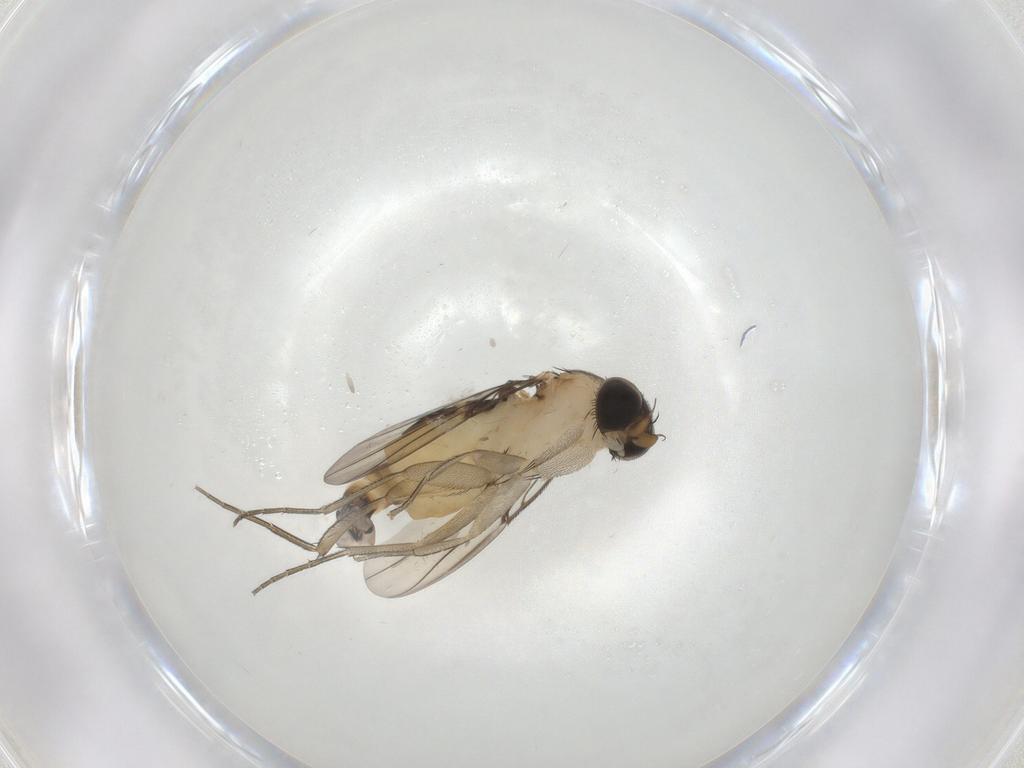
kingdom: Animalia
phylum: Arthropoda
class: Insecta
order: Diptera
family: Phoridae
